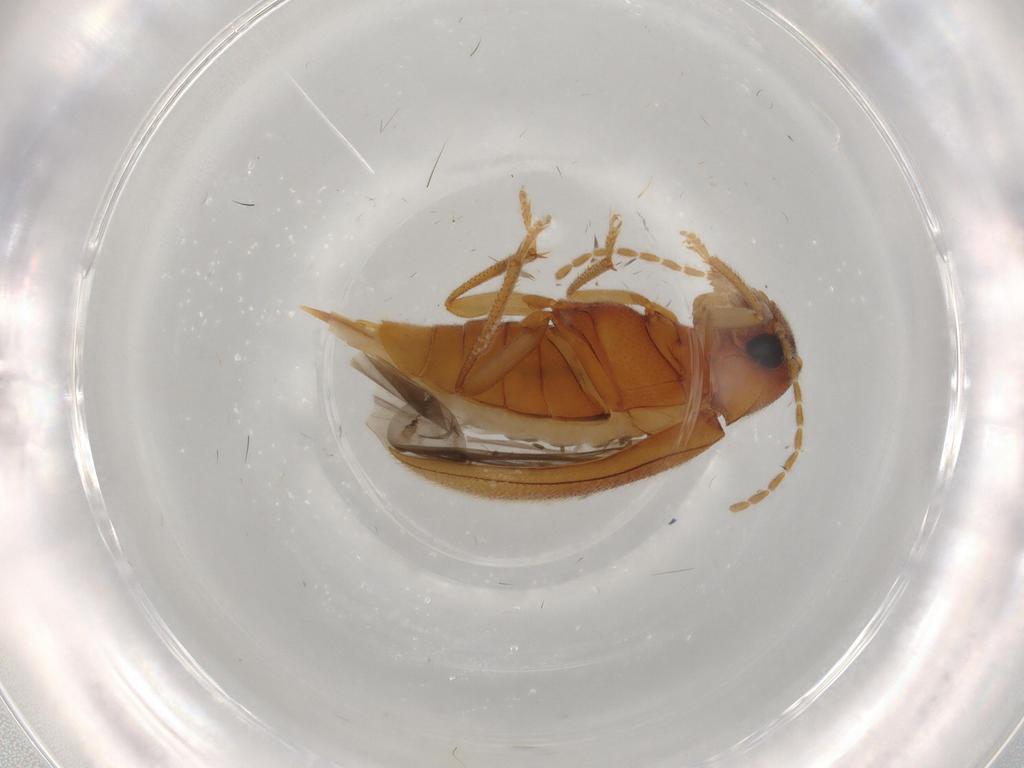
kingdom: Animalia
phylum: Arthropoda
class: Insecta
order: Coleoptera
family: Ptilodactylidae
